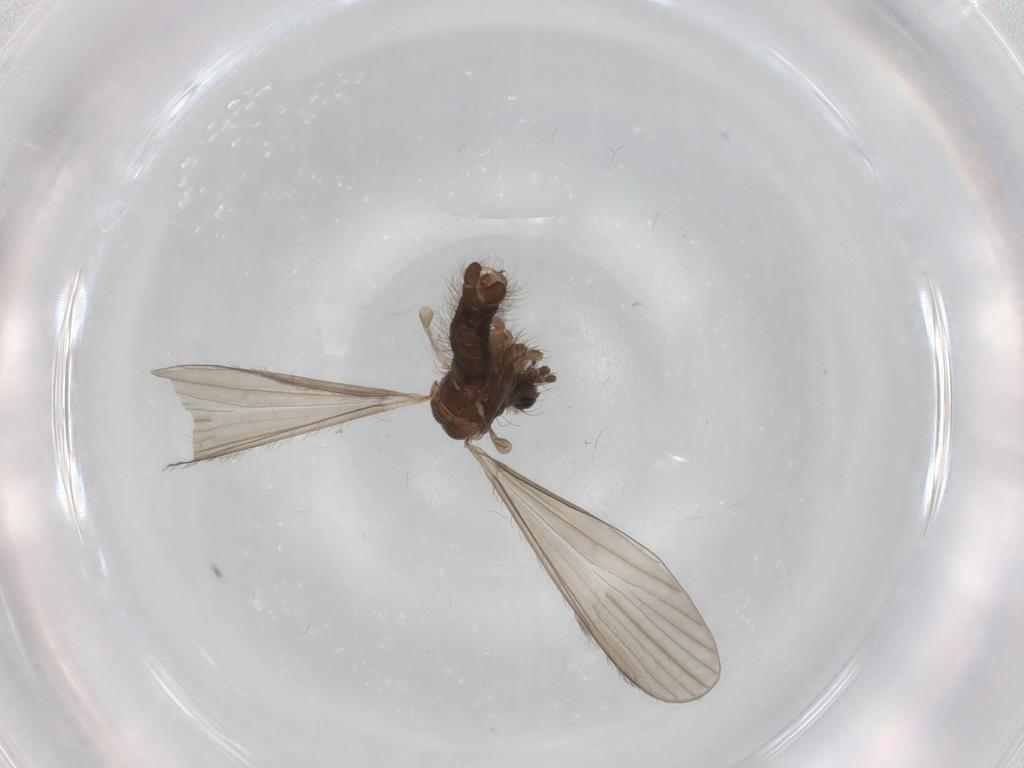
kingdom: Animalia
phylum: Arthropoda
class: Insecta
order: Diptera
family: Limoniidae
